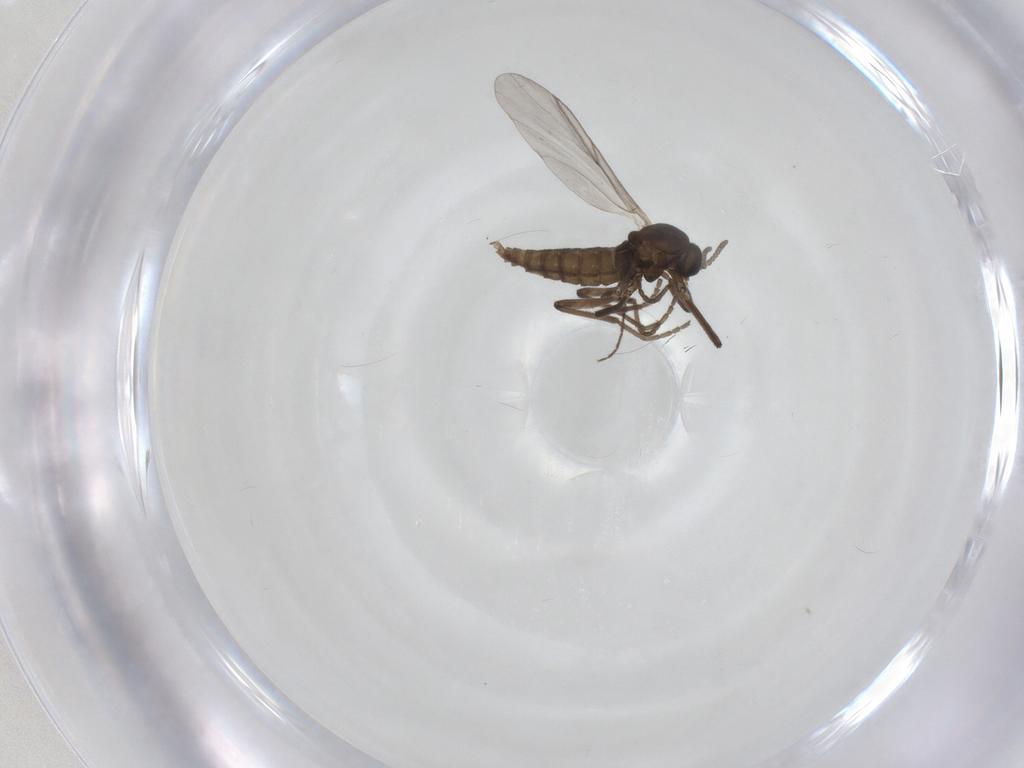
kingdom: Animalia
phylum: Arthropoda
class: Insecta
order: Diptera
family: Cecidomyiidae
